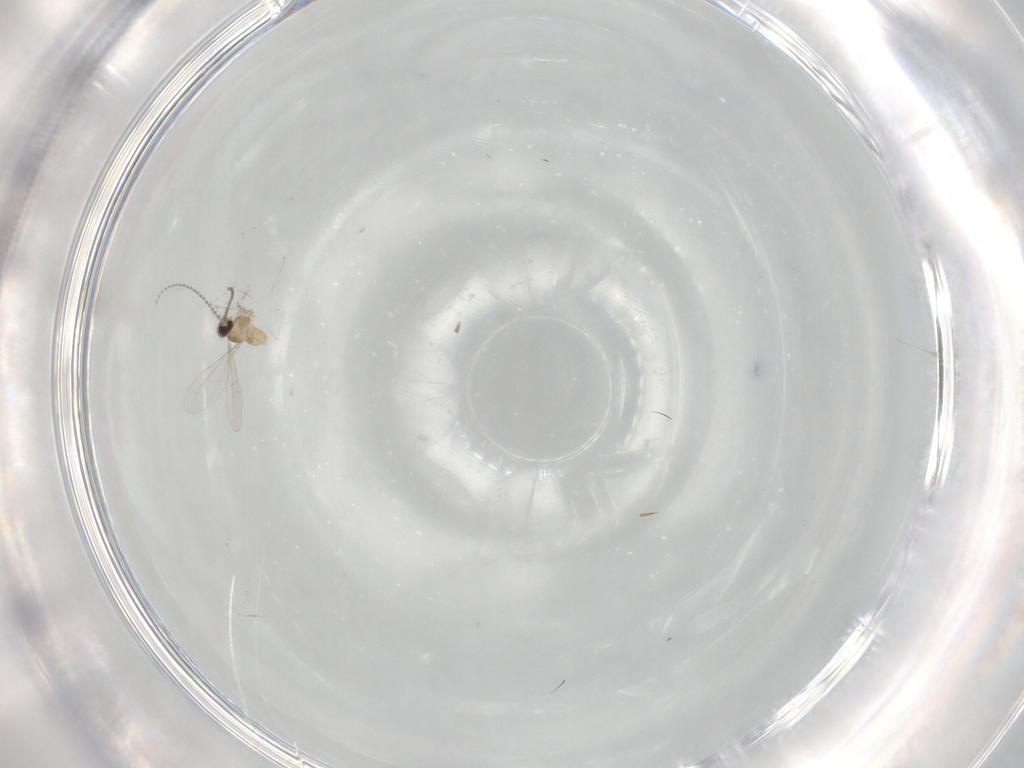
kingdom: Animalia
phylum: Arthropoda
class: Insecta
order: Diptera
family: Cecidomyiidae
